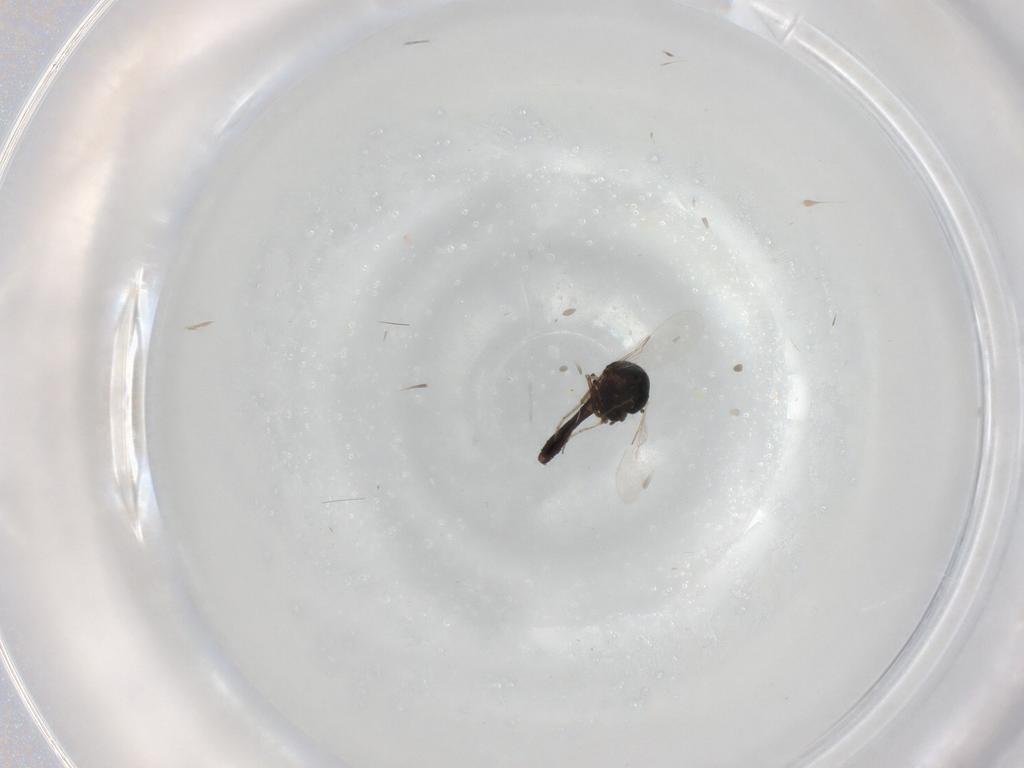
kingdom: Animalia
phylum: Arthropoda
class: Insecta
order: Diptera
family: Ceratopogonidae
